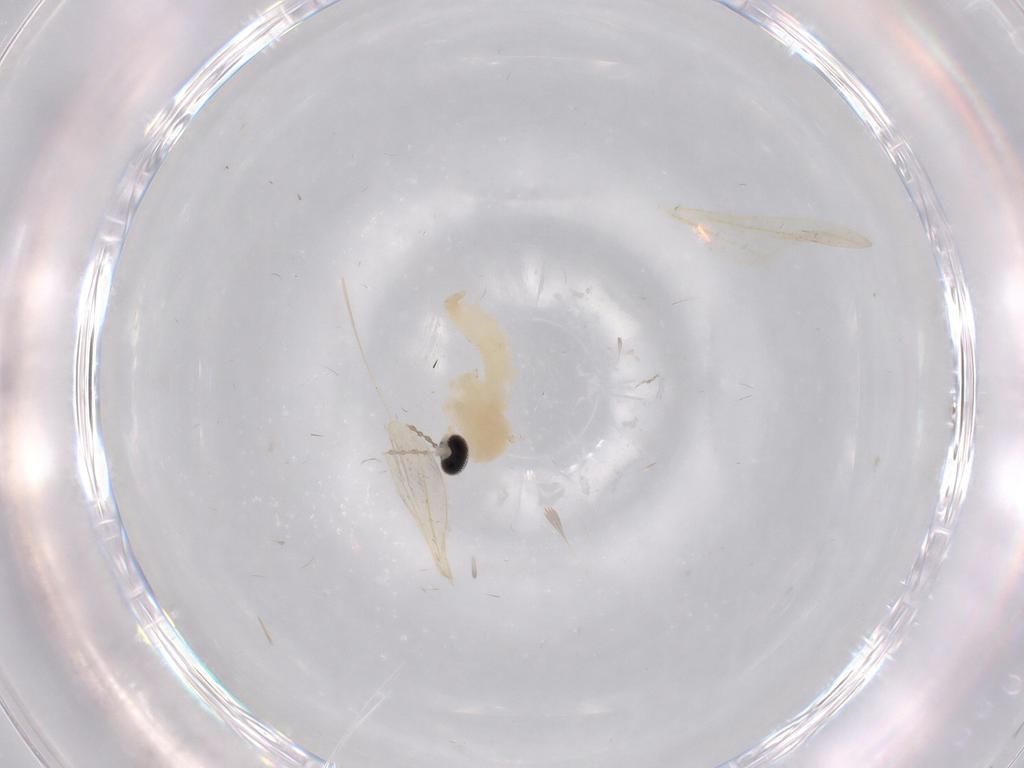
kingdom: Animalia
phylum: Arthropoda
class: Insecta
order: Diptera
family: Cecidomyiidae
